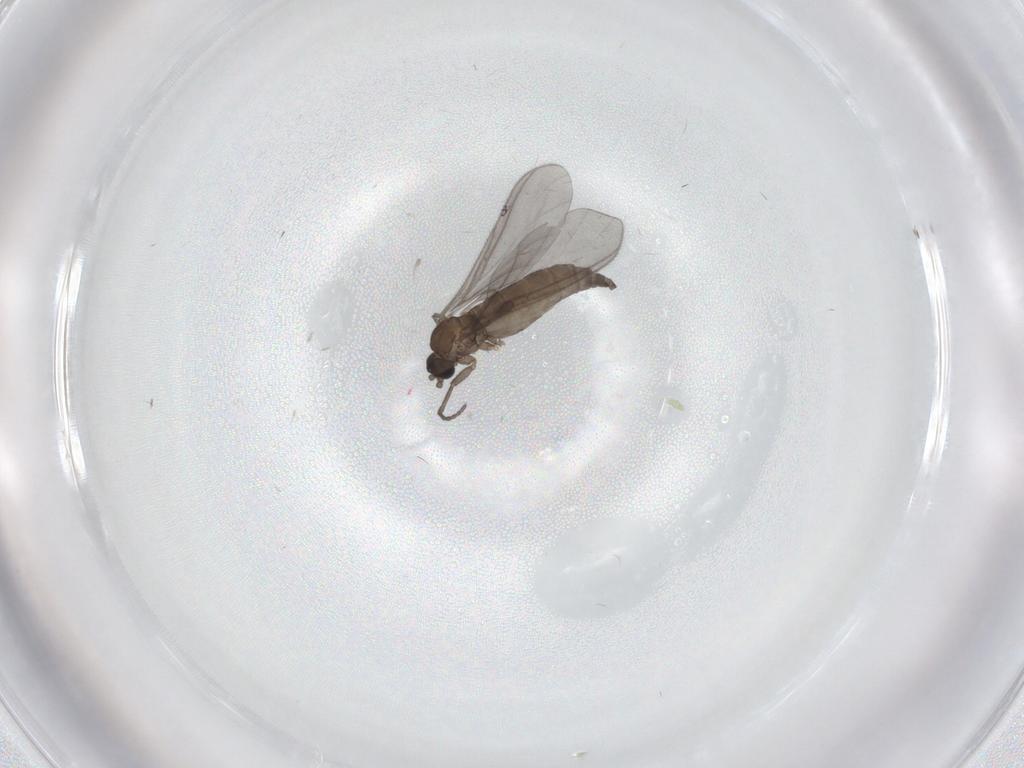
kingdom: Animalia
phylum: Arthropoda
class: Insecta
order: Diptera
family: Sciaridae
